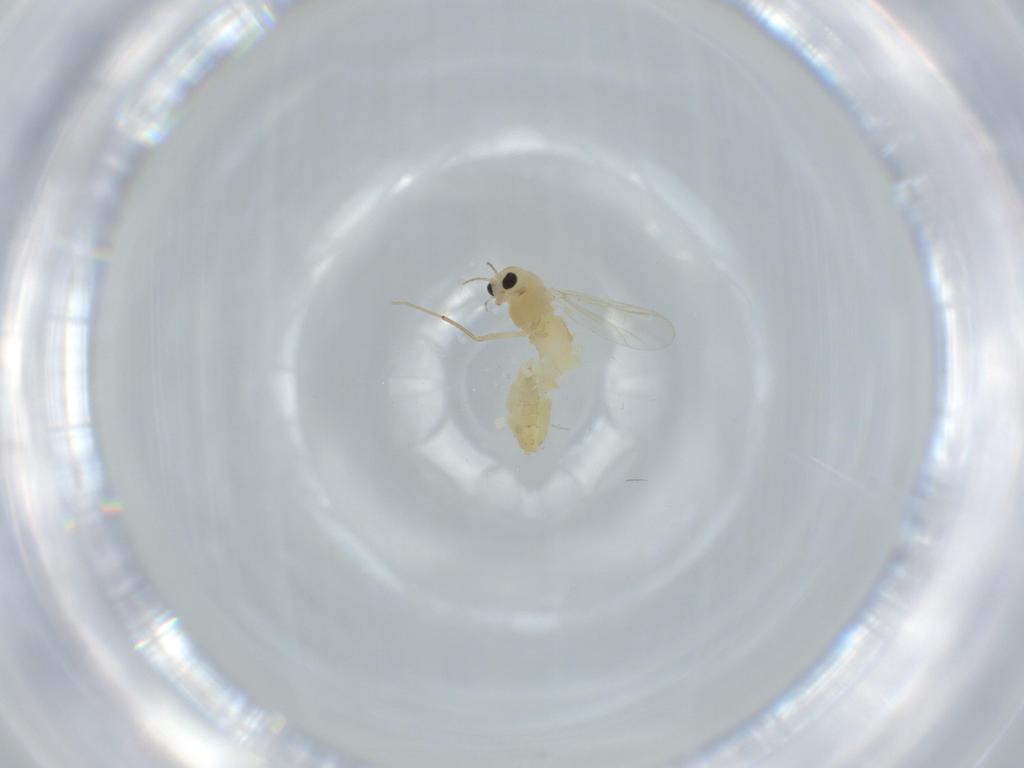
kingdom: Animalia
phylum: Arthropoda
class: Insecta
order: Diptera
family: Chironomidae
